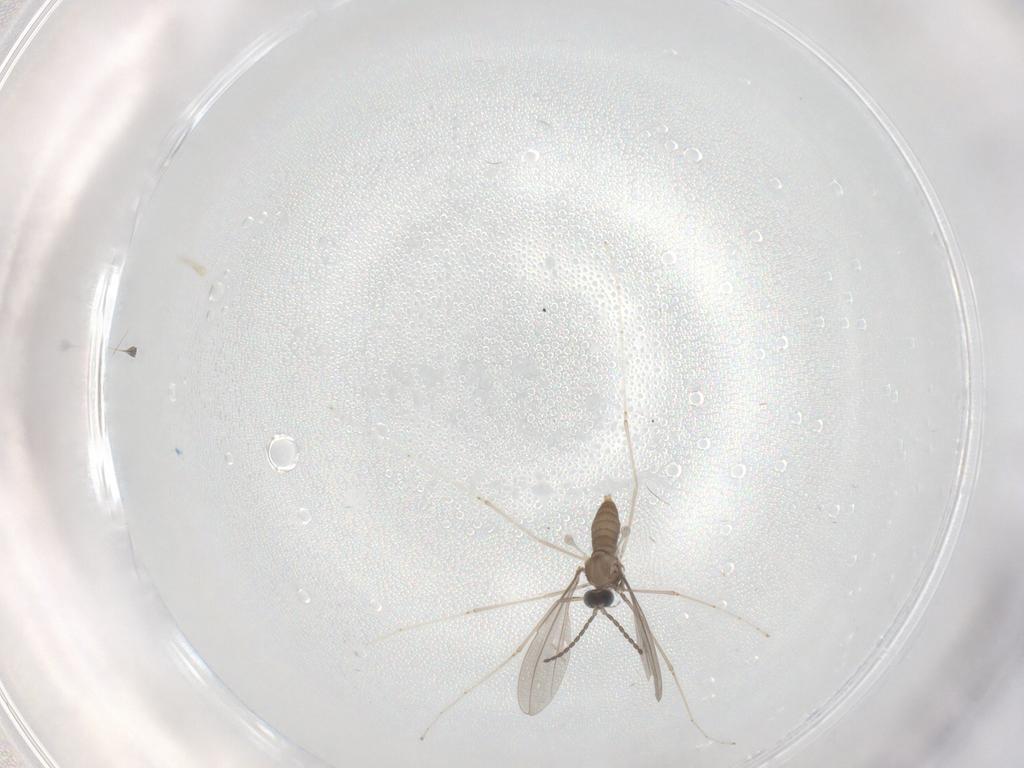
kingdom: Animalia
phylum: Arthropoda
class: Insecta
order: Diptera
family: Cecidomyiidae
